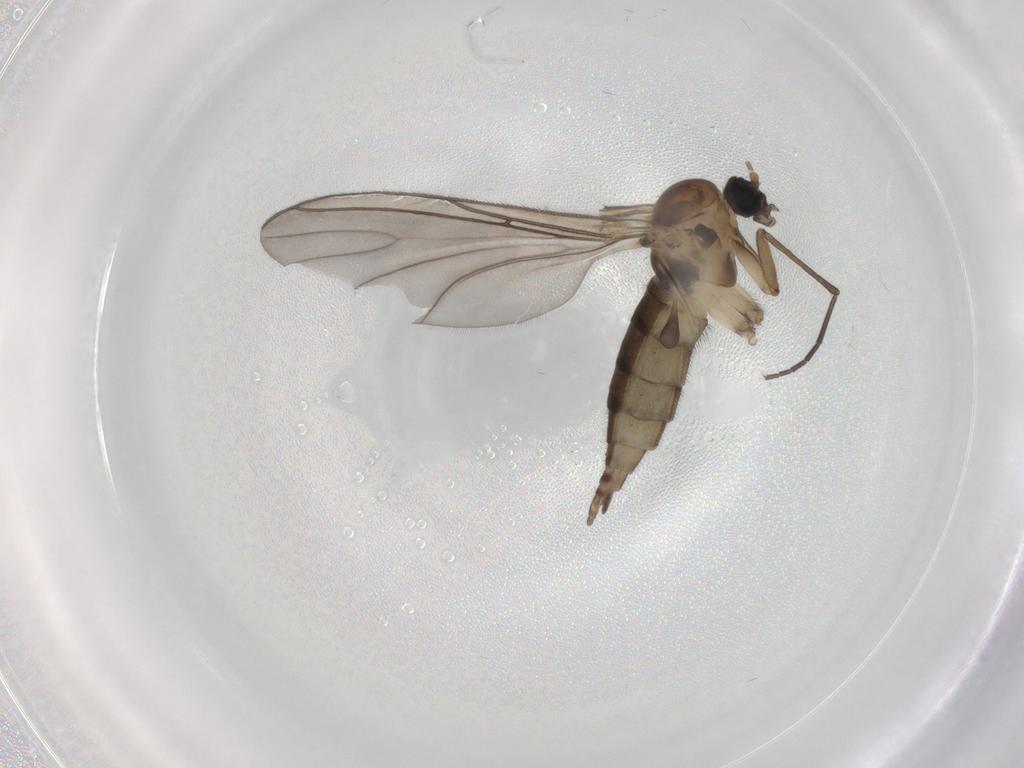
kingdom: Animalia
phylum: Arthropoda
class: Insecta
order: Diptera
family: Sciaridae
